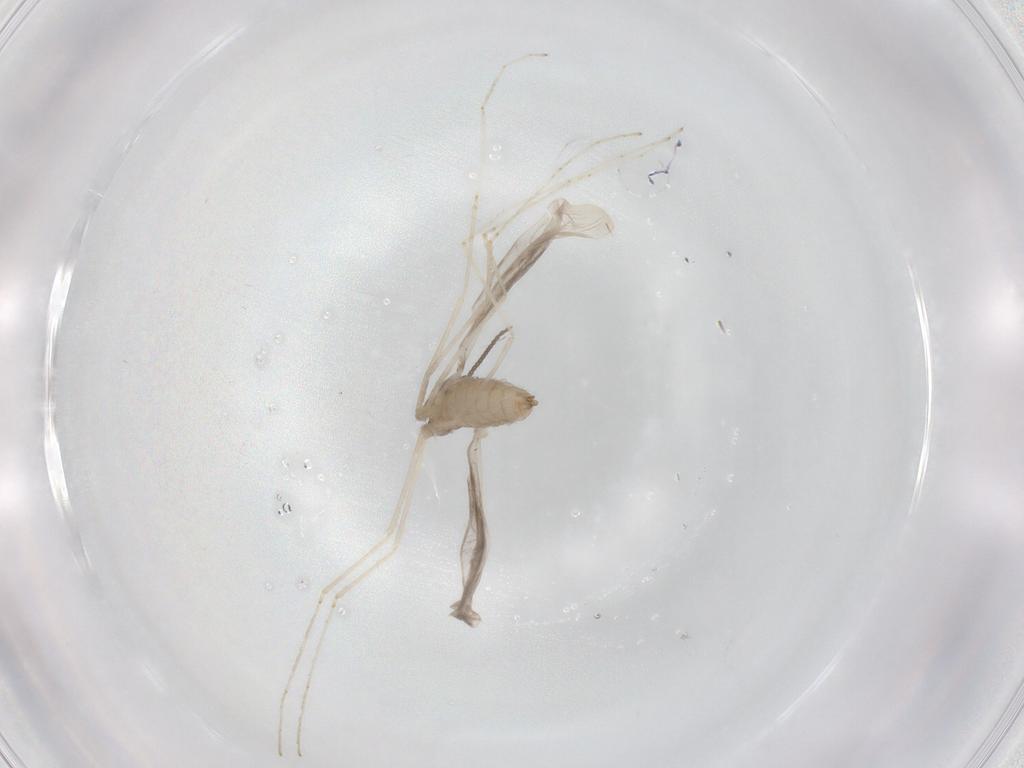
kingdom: Animalia
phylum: Arthropoda
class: Insecta
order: Diptera
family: Cecidomyiidae
